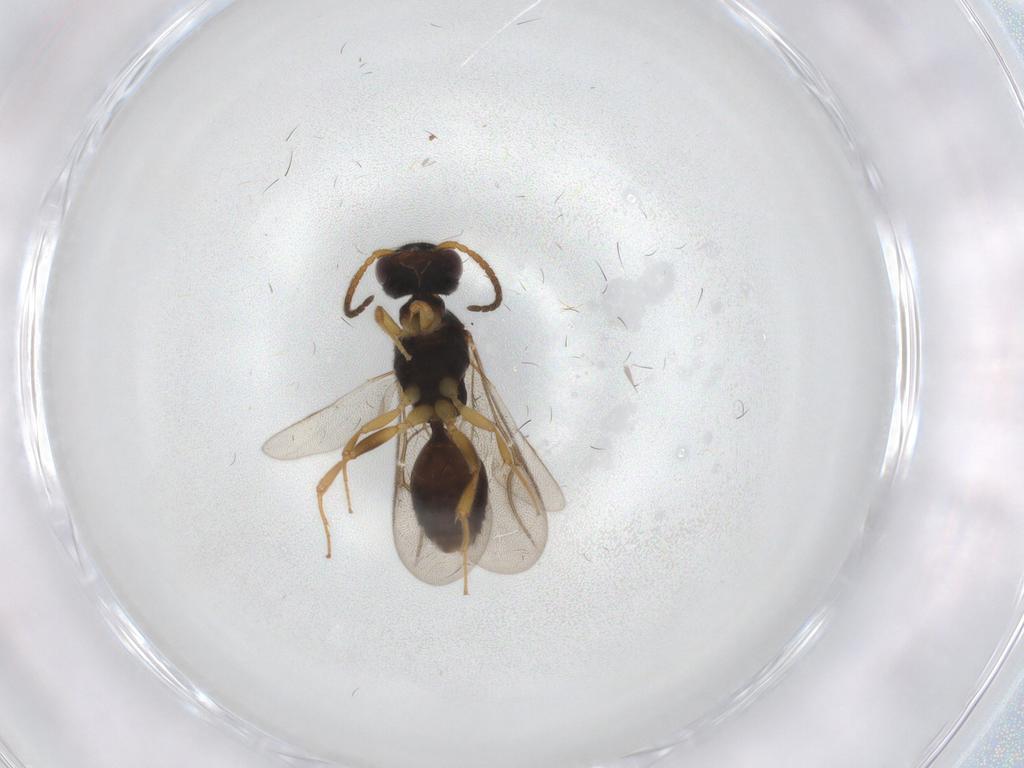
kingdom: Animalia
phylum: Arthropoda
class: Insecta
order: Hymenoptera
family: Bethylidae
